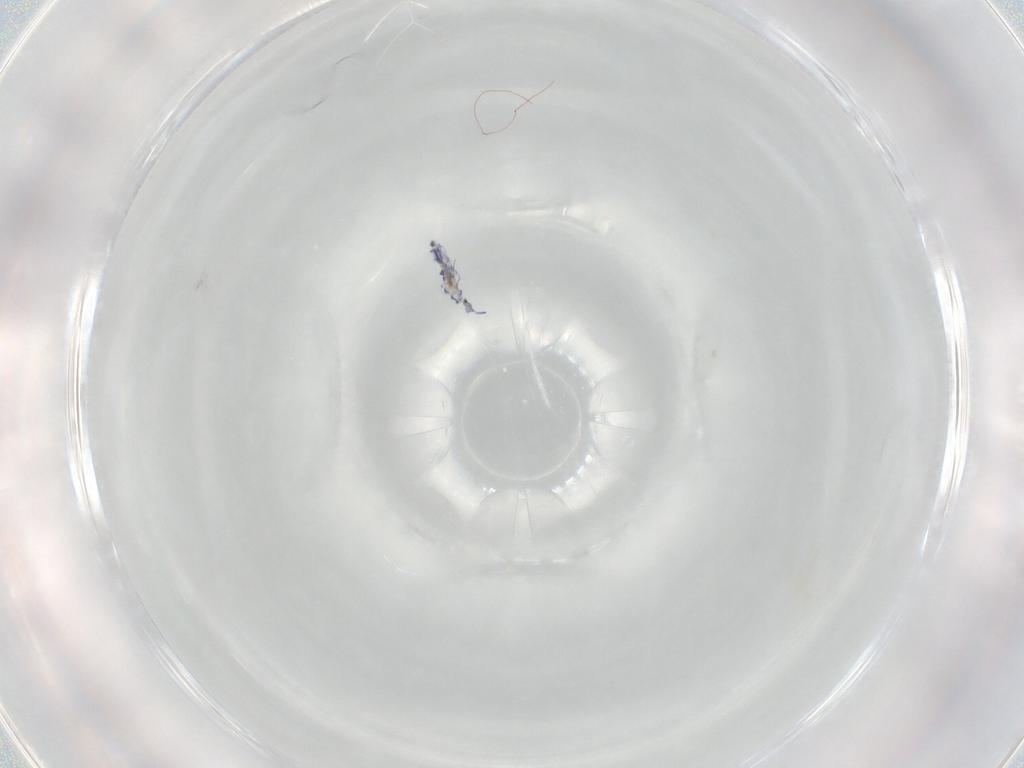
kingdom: Animalia
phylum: Arthropoda
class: Collembola
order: Entomobryomorpha
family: Entomobryidae
